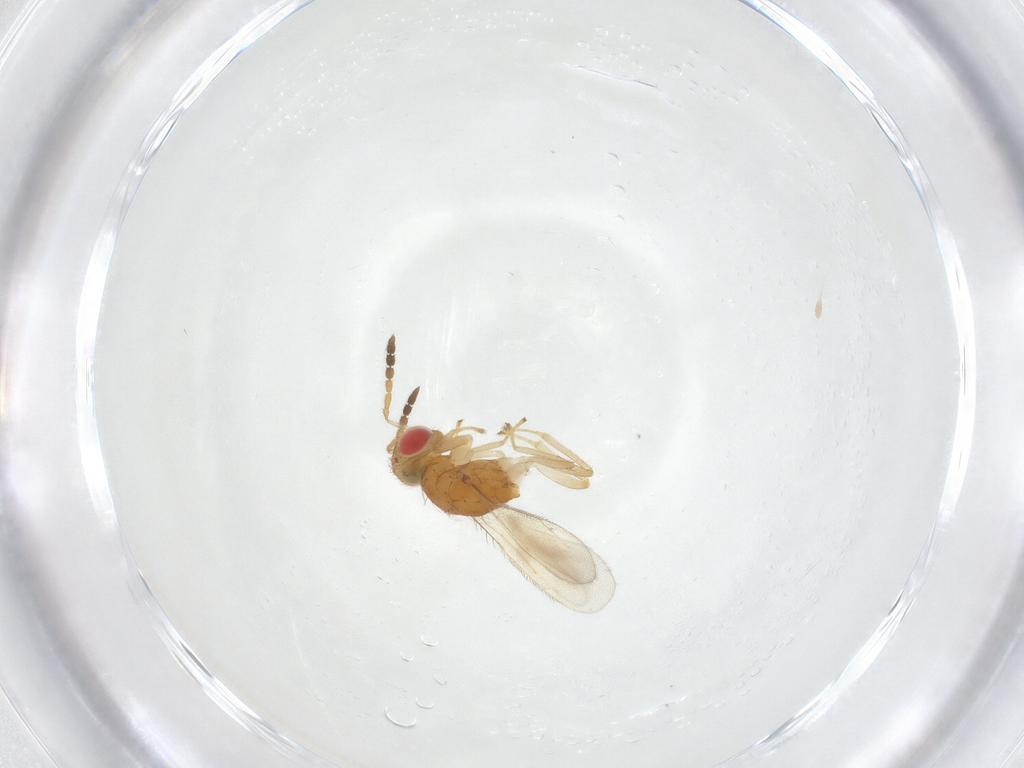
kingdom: Animalia
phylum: Arthropoda
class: Insecta
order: Hymenoptera
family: Eulophidae
